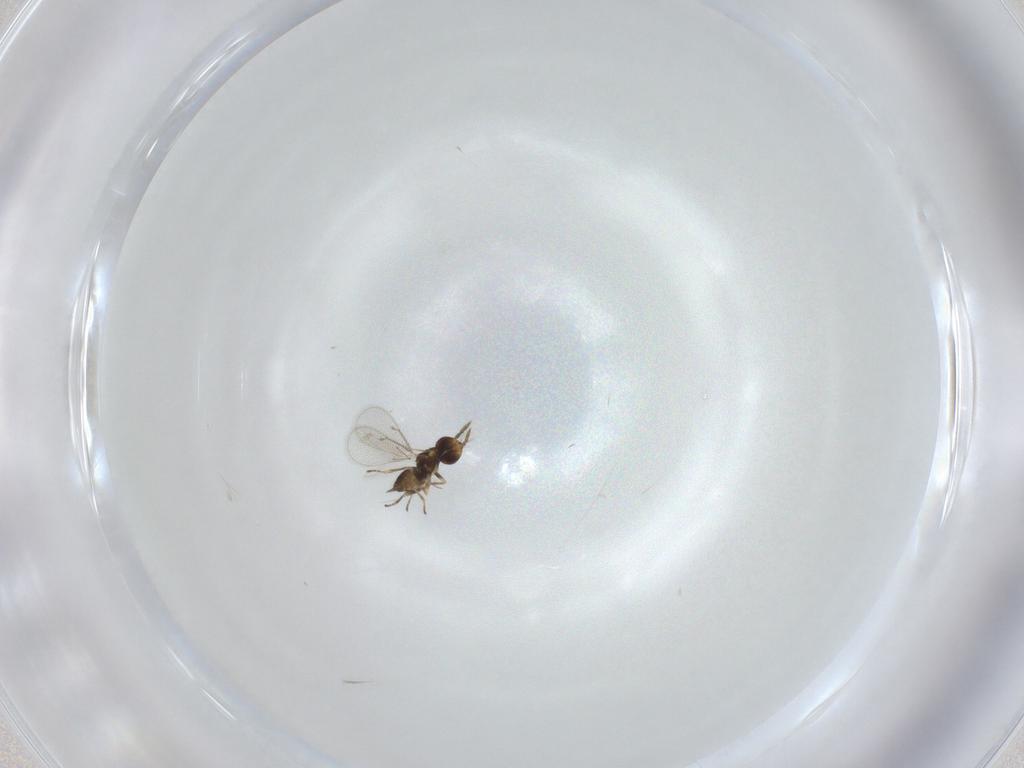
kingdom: Animalia
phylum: Arthropoda
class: Insecta
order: Hymenoptera
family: Eulophidae
